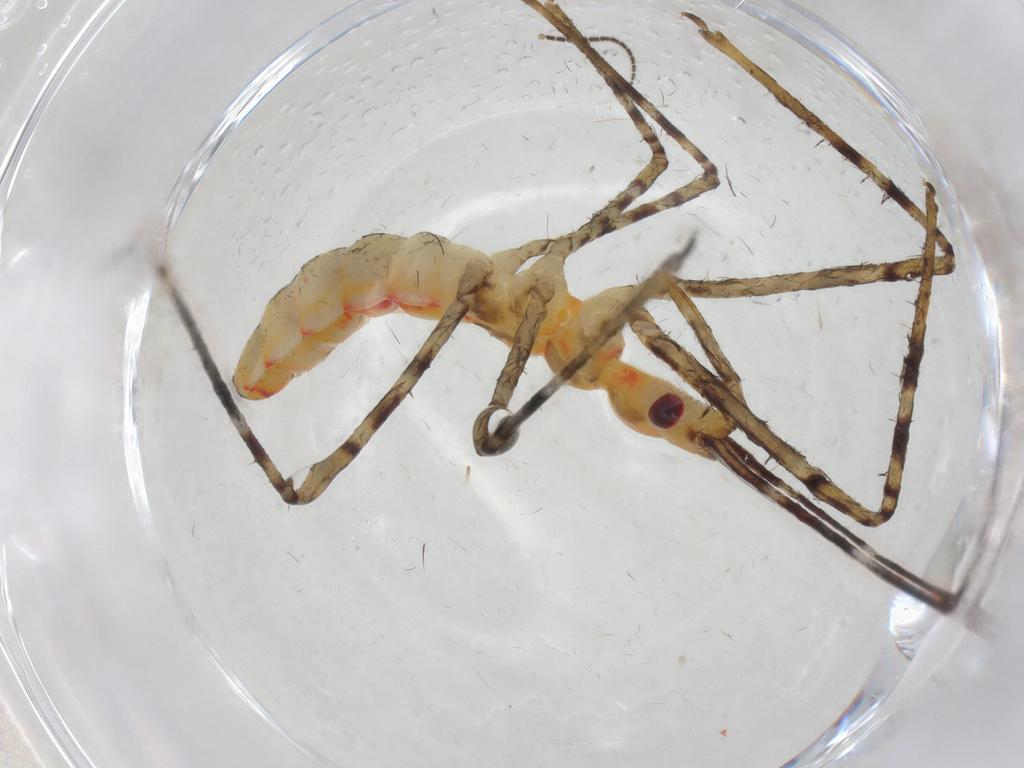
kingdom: Animalia
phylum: Arthropoda
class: Insecta
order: Hemiptera
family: Reduviidae
